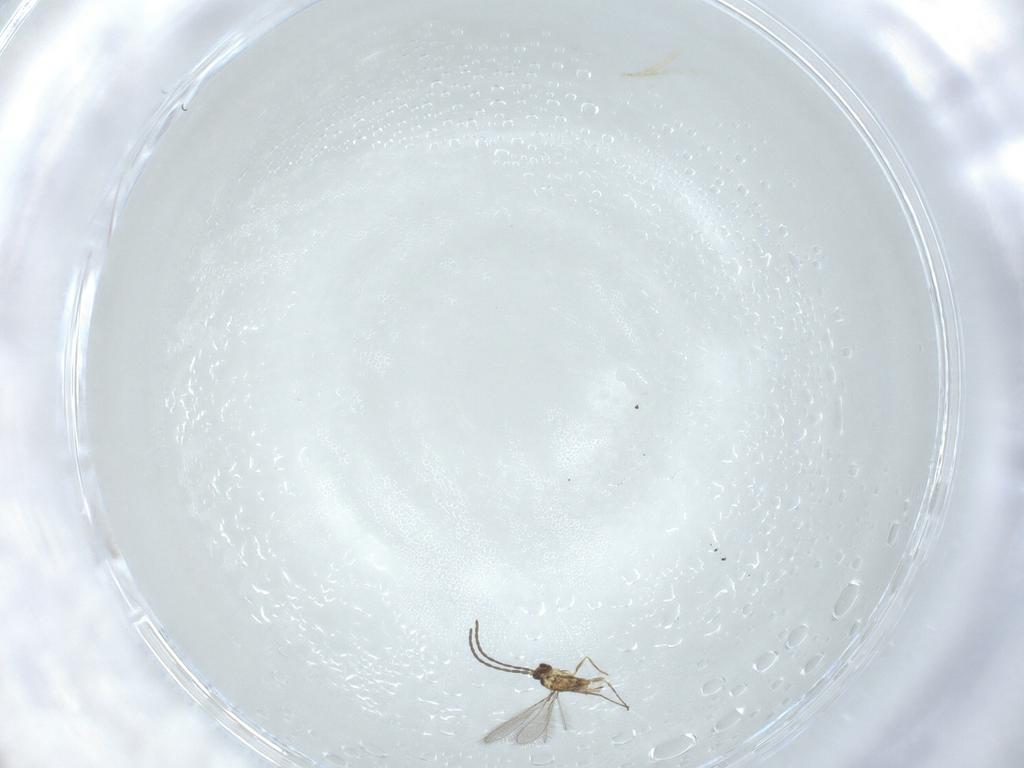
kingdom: Animalia
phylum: Arthropoda
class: Insecta
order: Hymenoptera
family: Mymaridae
